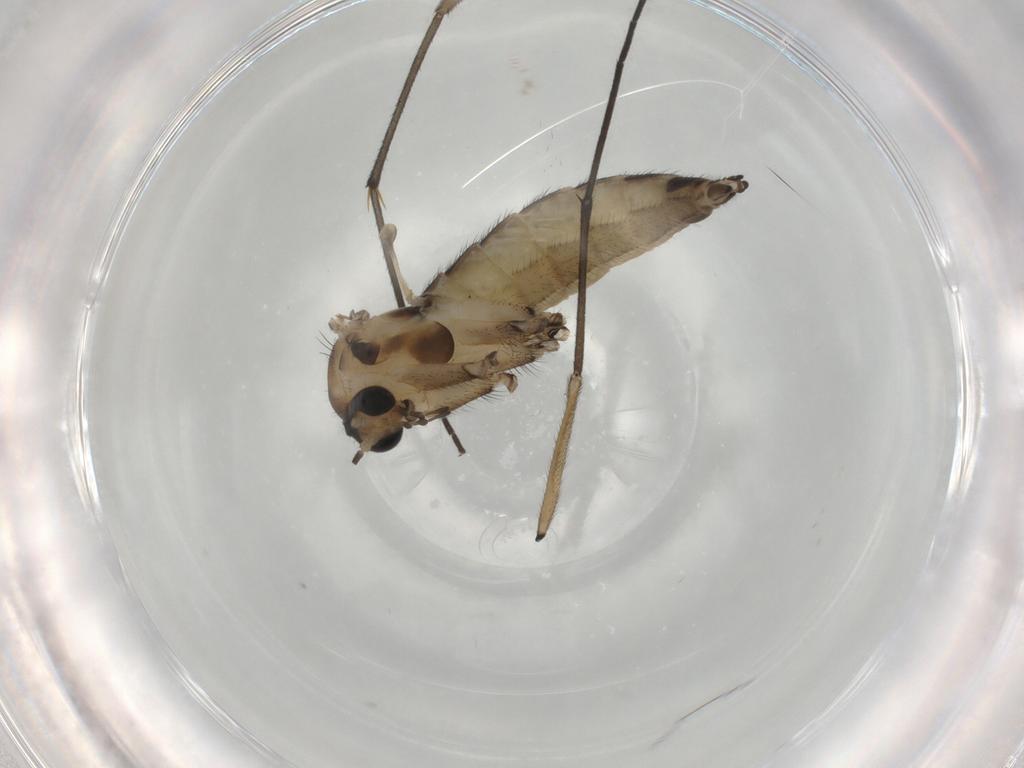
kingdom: Animalia
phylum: Arthropoda
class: Insecta
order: Diptera
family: Sciaridae
